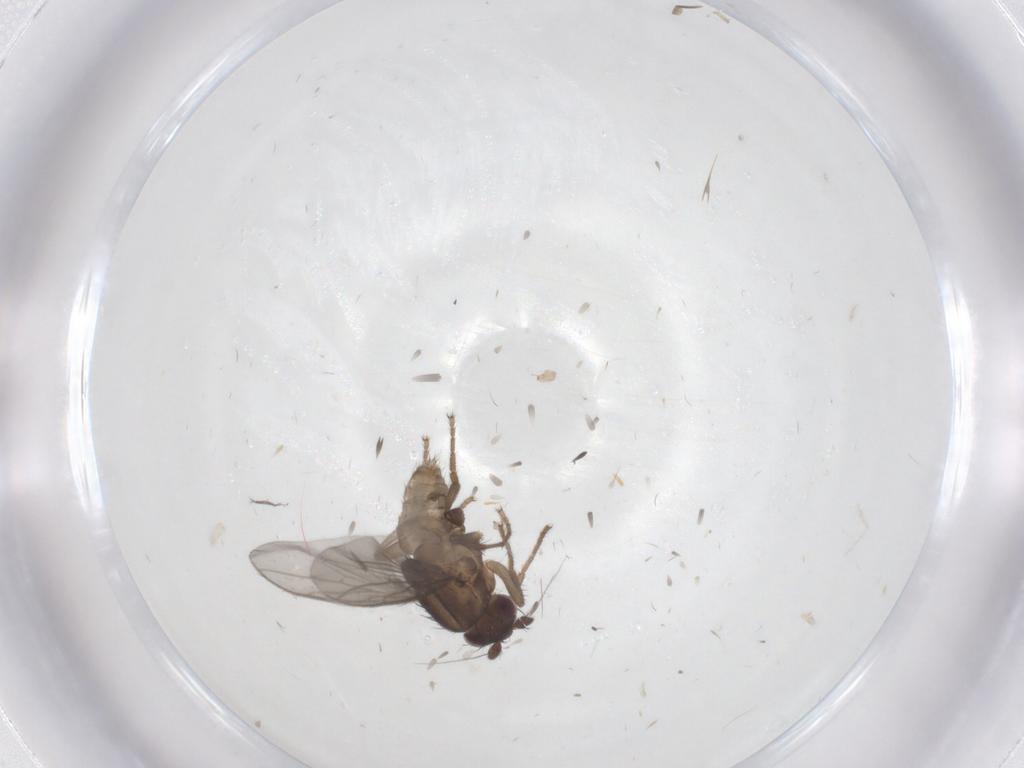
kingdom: Animalia
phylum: Arthropoda
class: Insecta
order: Diptera
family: Sphaeroceridae
